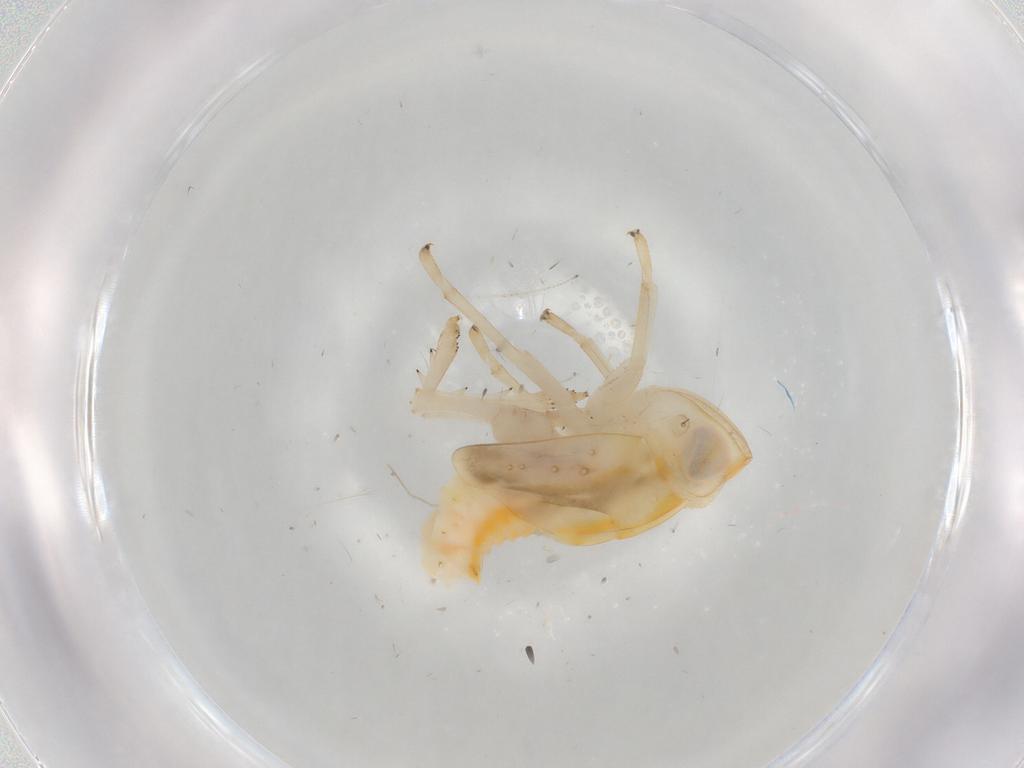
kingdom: Animalia
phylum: Arthropoda
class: Insecta
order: Hemiptera
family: Nogodinidae
